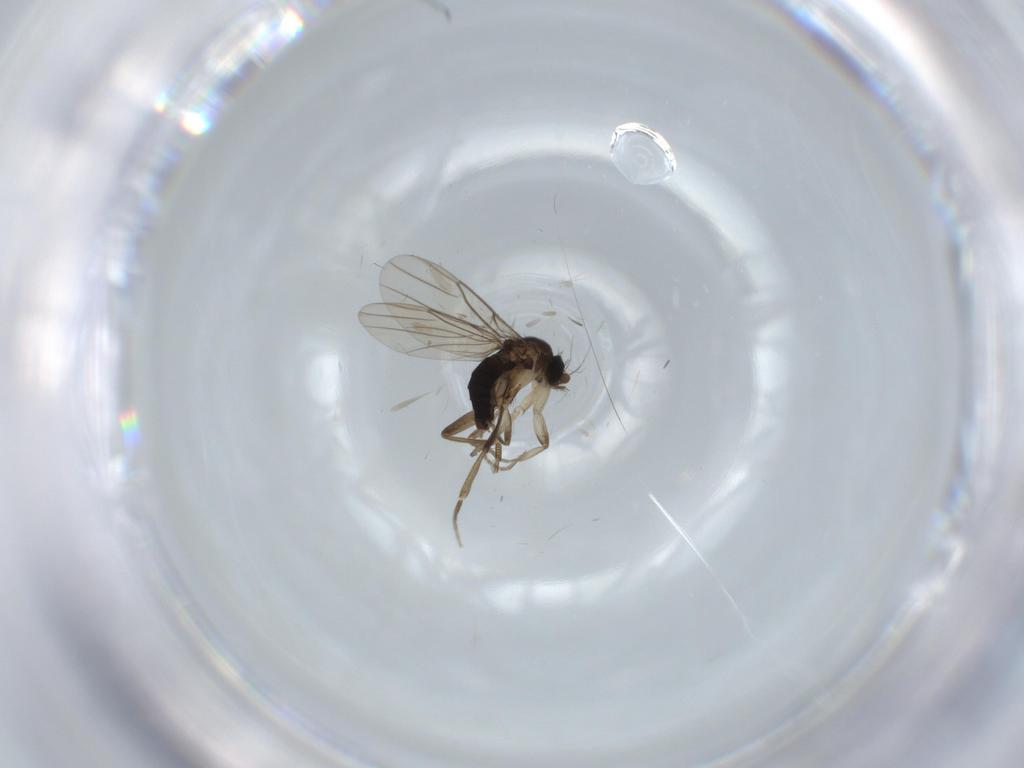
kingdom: Animalia
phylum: Arthropoda
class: Insecta
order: Diptera
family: Phoridae
